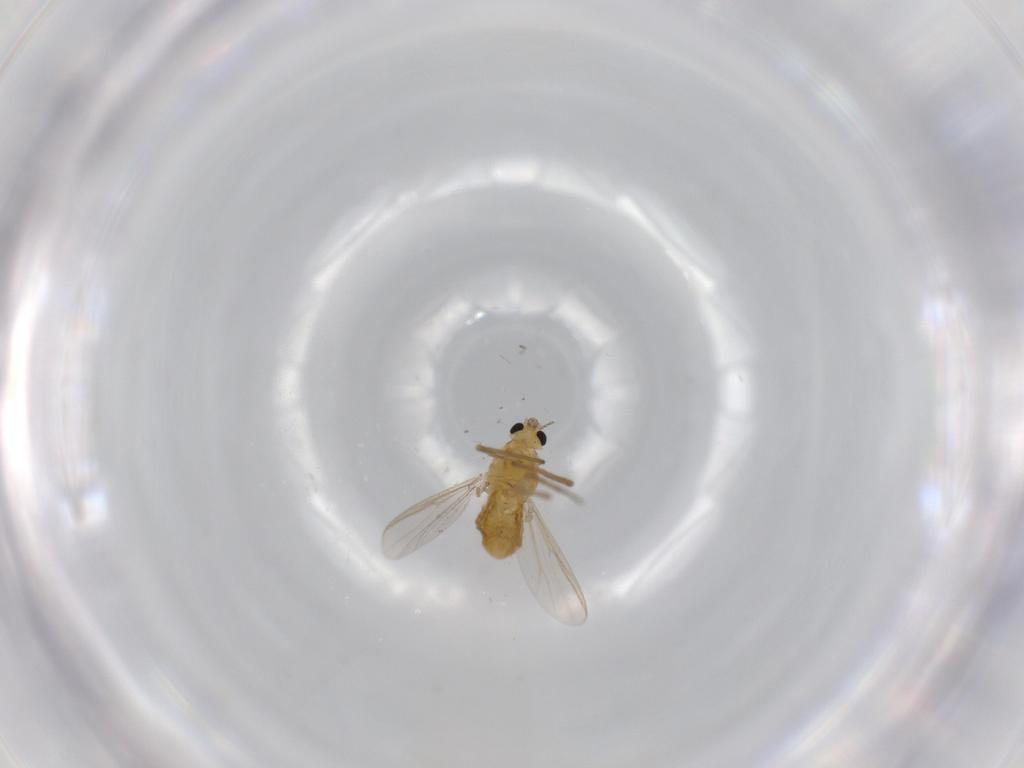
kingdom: Animalia
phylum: Arthropoda
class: Insecta
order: Diptera
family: Chironomidae
